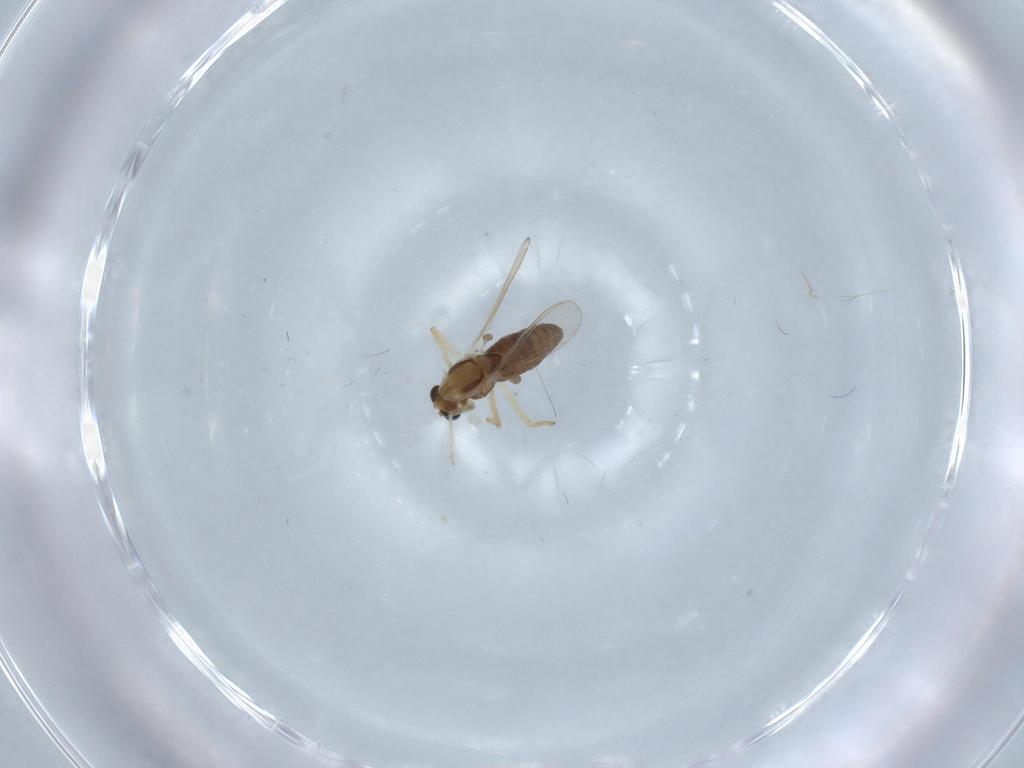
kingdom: Animalia
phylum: Arthropoda
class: Insecta
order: Diptera
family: Chironomidae
